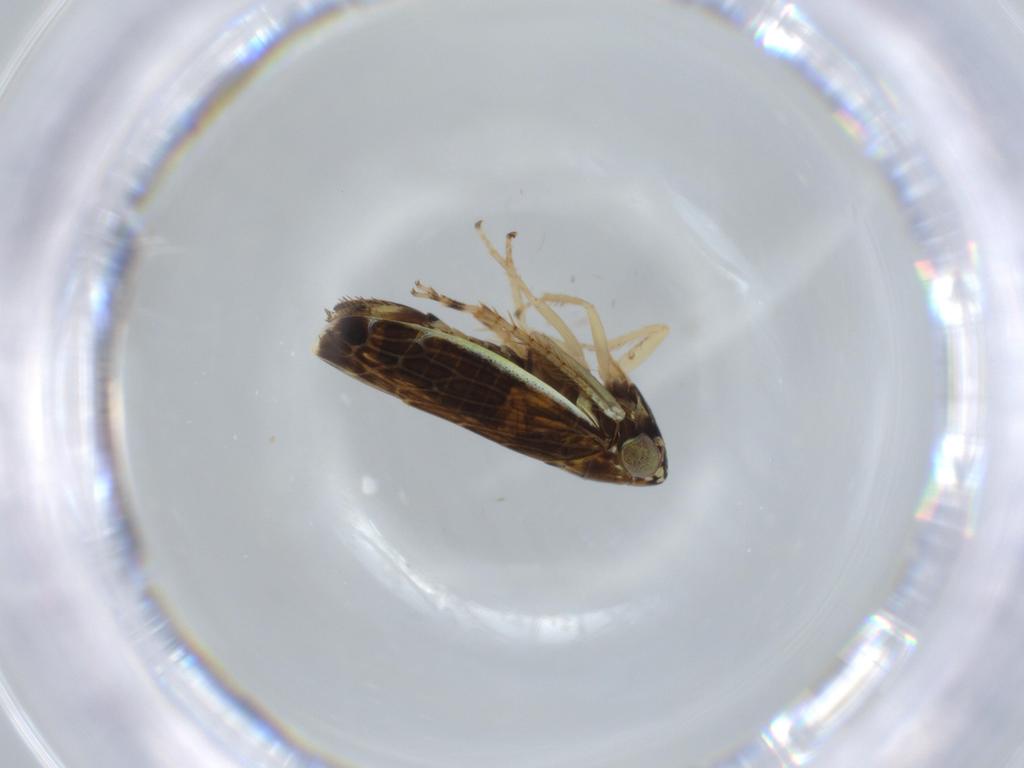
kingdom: Animalia
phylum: Arthropoda
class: Insecta
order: Hemiptera
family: Cicadellidae
